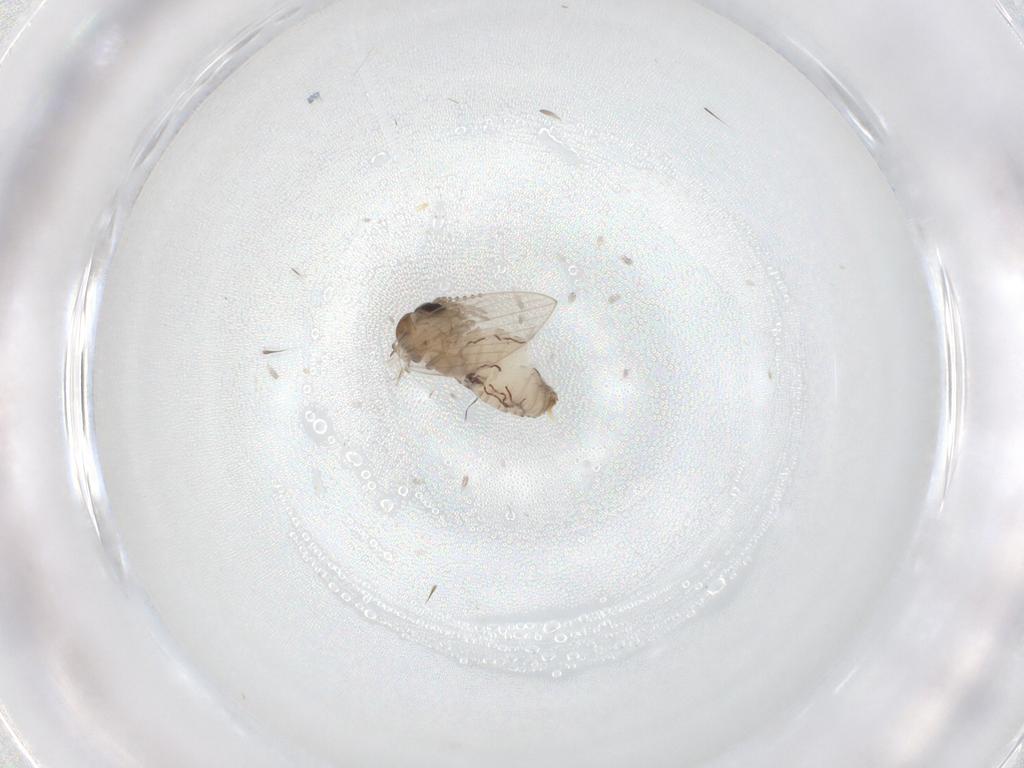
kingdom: Animalia
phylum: Arthropoda
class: Insecta
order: Diptera
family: Psychodidae
